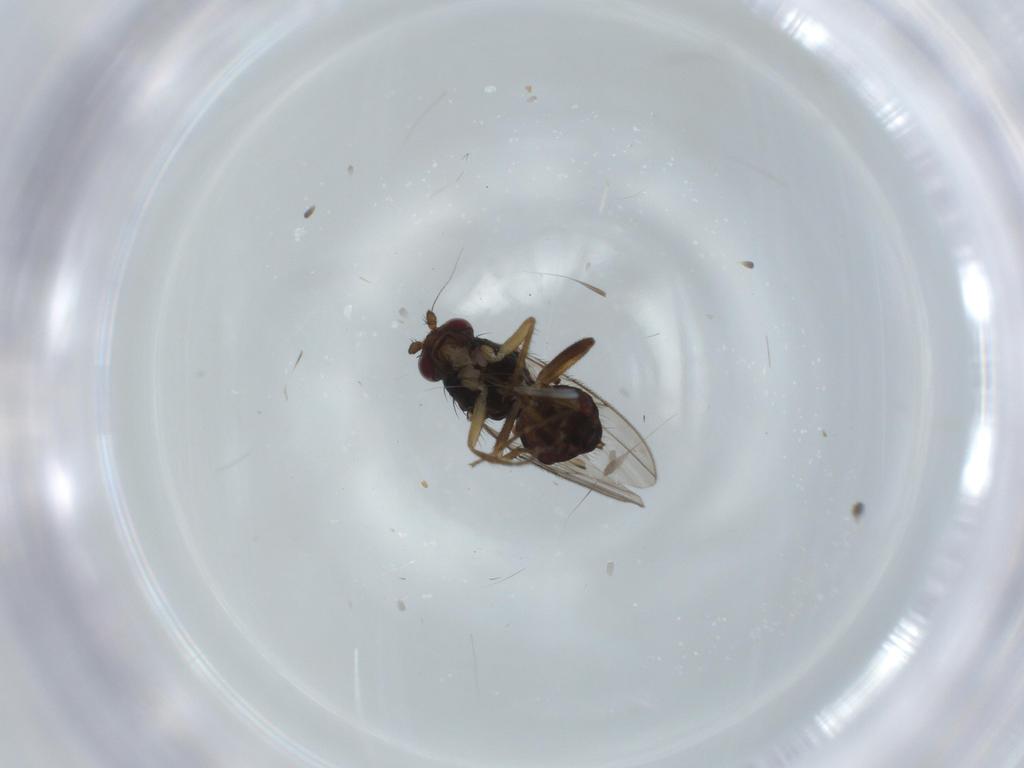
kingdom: Animalia
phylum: Arthropoda
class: Insecta
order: Diptera
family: Sphaeroceridae
